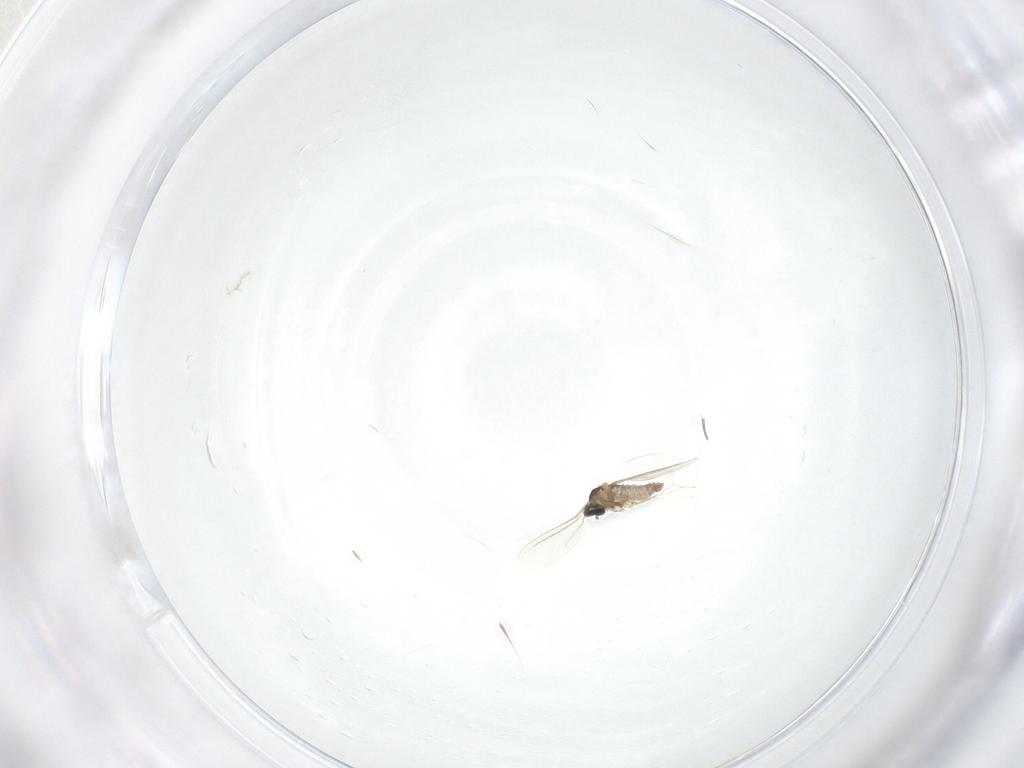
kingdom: Animalia
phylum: Arthropoda
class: Insecta
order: Diptera
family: Cecidomyiidae
